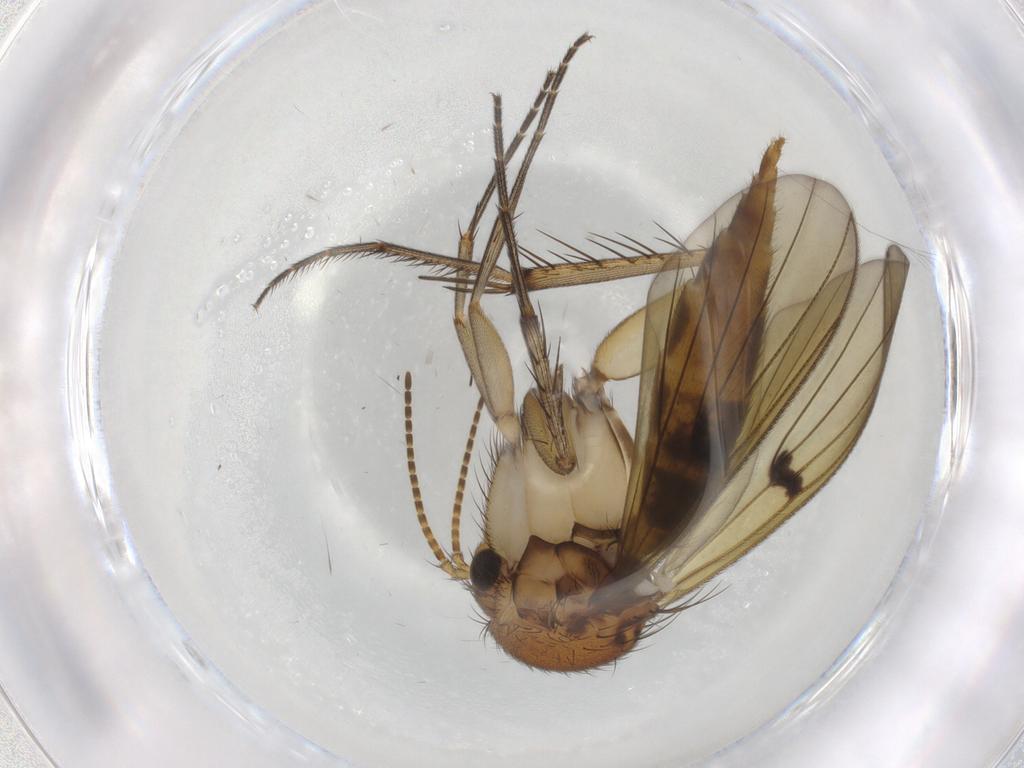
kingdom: Animalia
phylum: Arthropoda
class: Insecta
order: Diptera
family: Mycetophilidae
